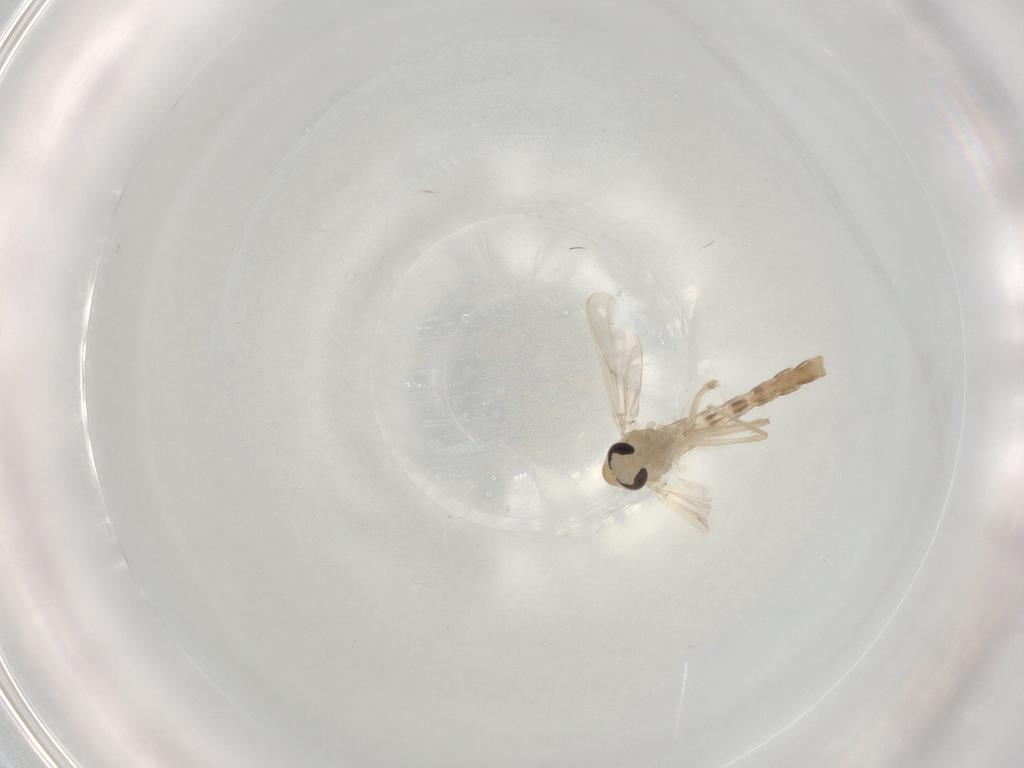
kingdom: Animalia
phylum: Arthropoda
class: Insecta
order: Diptera
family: Chironomidae
